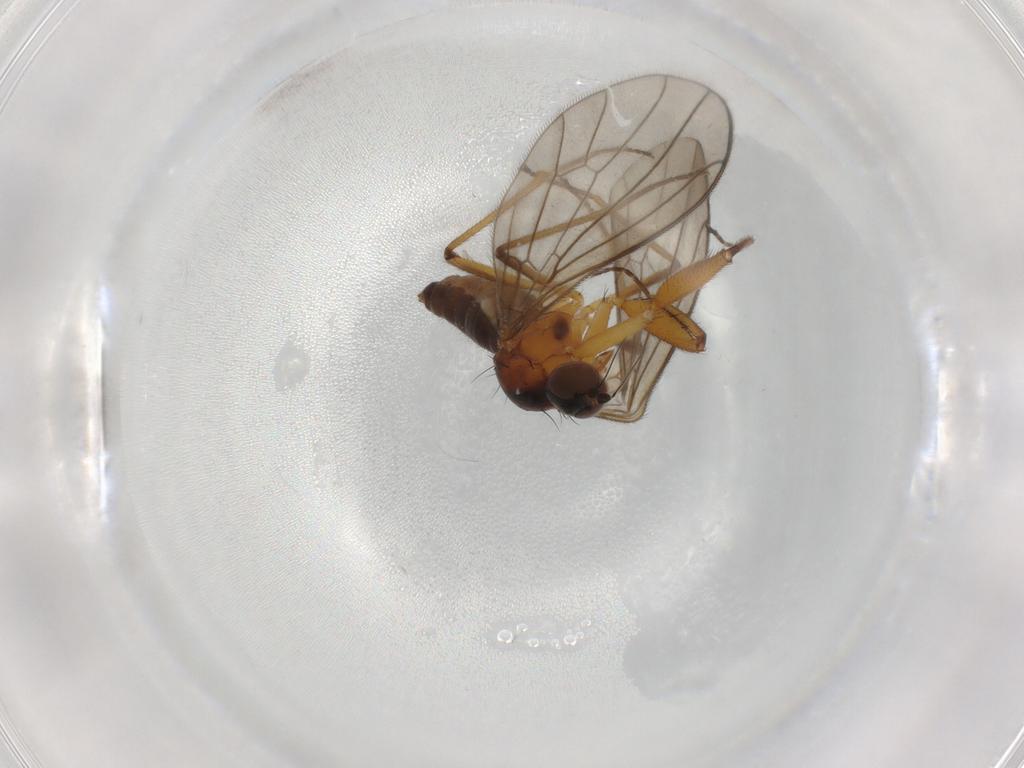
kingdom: Animalia
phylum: Arthropoda
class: Insecta
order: Diptera
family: Empididae
